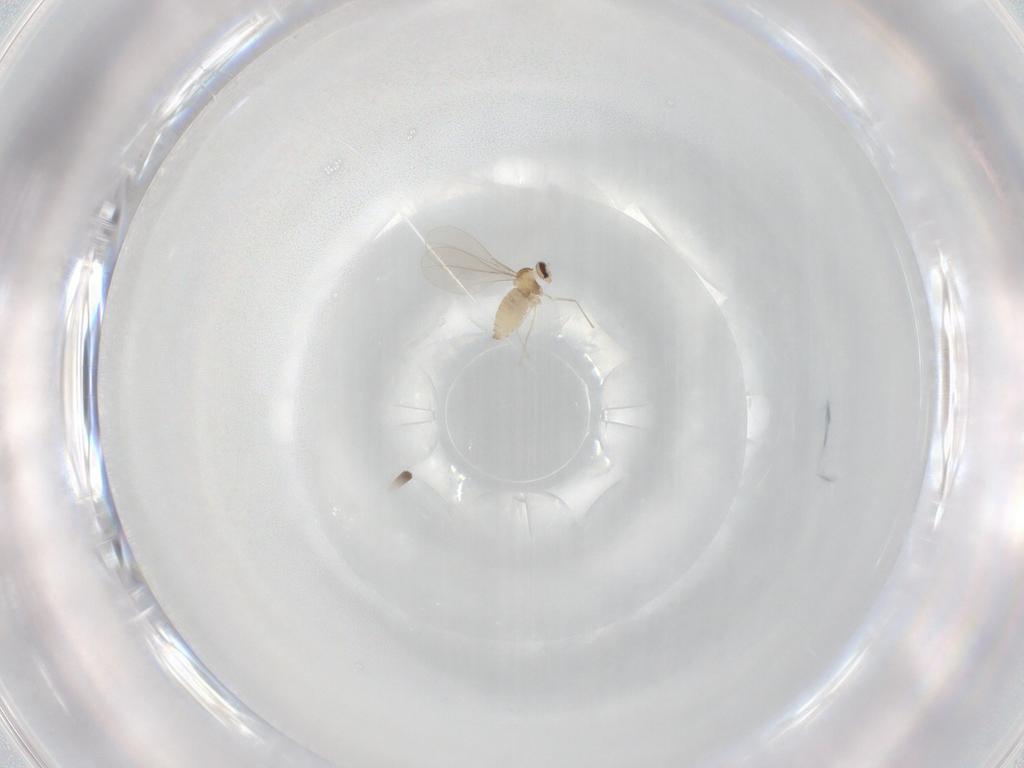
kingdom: Animalia
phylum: Arthropoda
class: Insecta
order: Diptera
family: Cecidomyiidae
